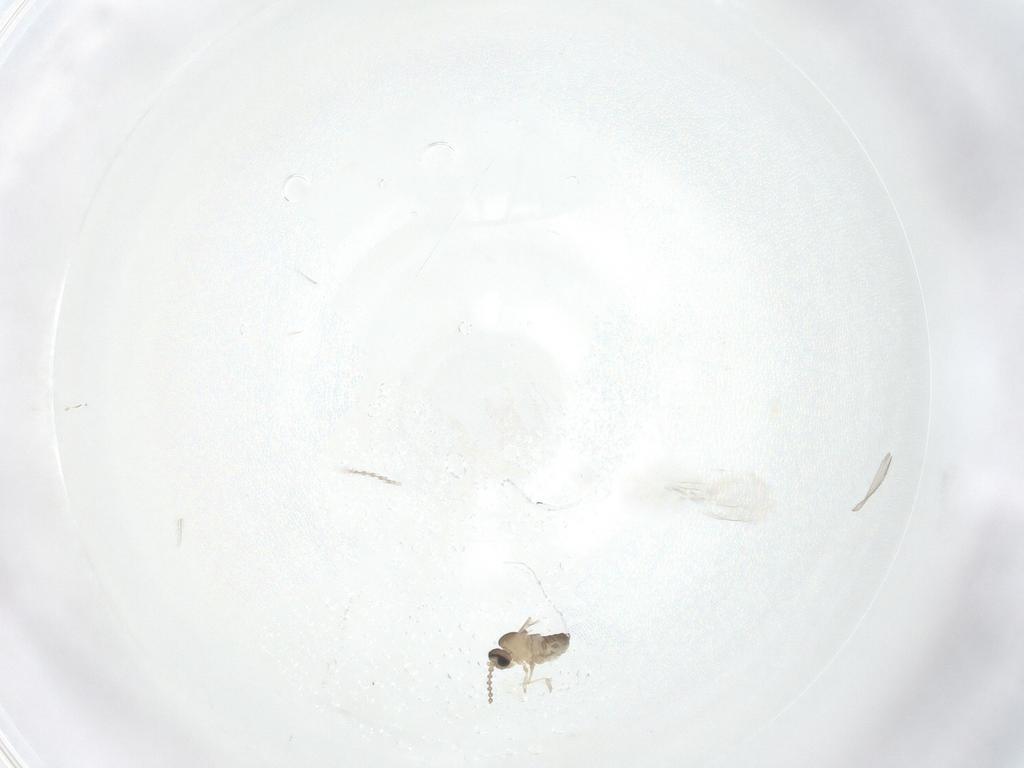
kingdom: Animalia
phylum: Arthropoda
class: Insecta
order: Diptera
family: Cecidomyiidae
